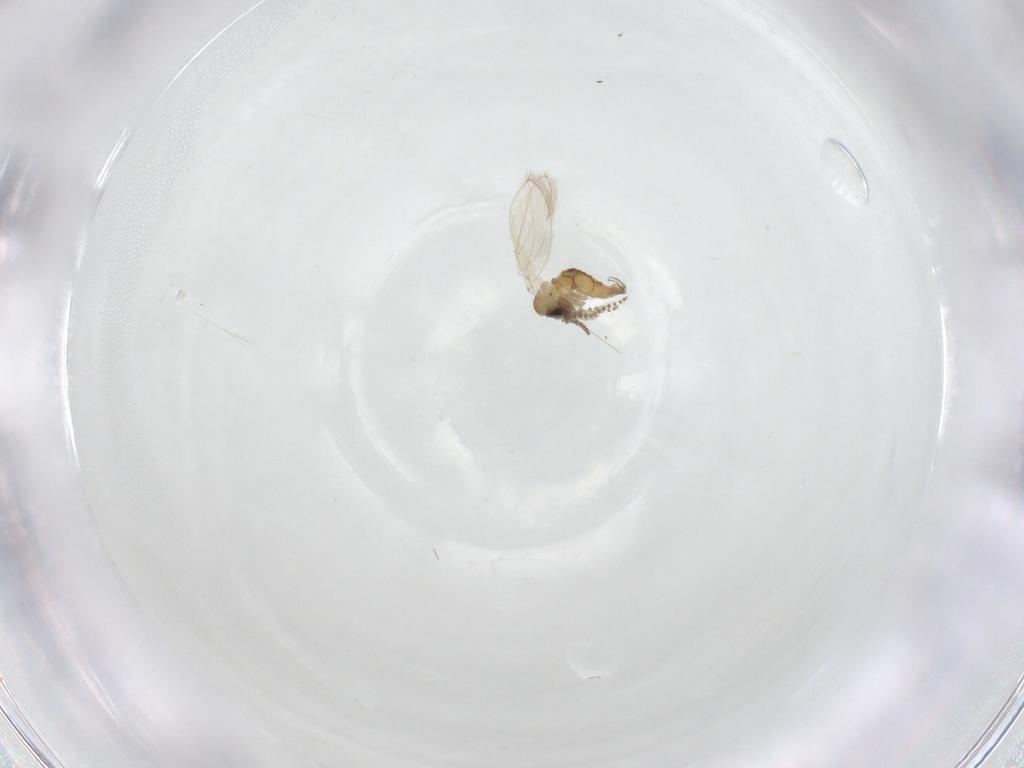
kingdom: Animalia
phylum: Arthropoda
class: Insecta
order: Diptera
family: Psychodidae
